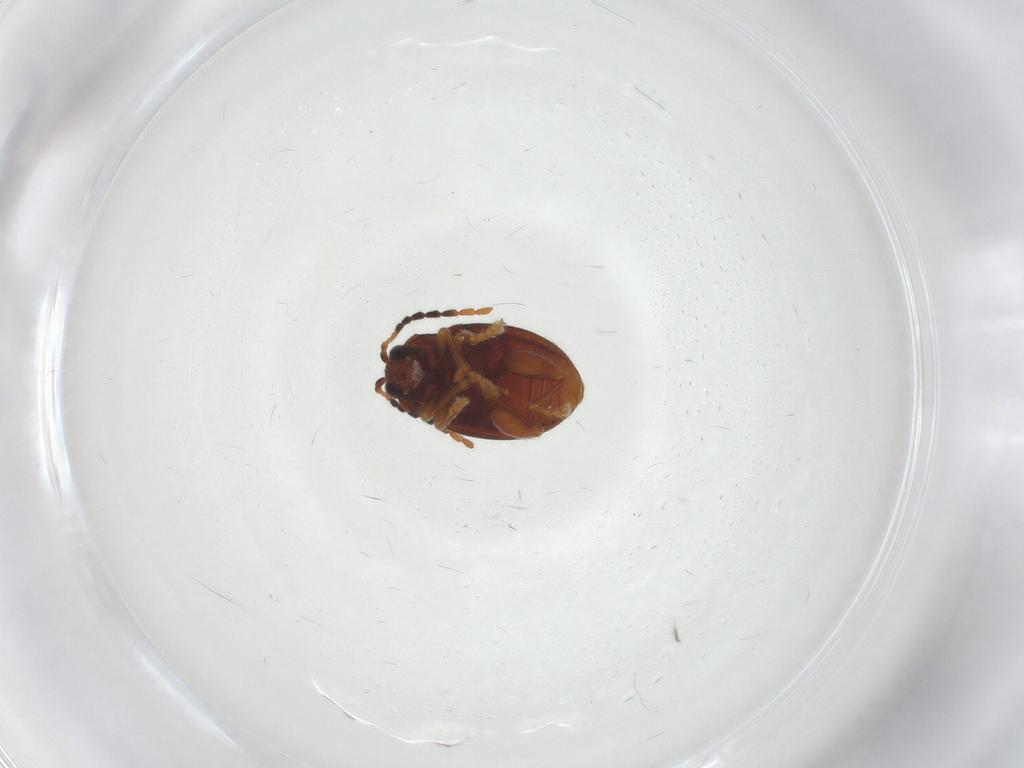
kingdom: Animalia
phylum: Arthropoda
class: Insecta
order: Coleoptera
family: Chrysomelidae
